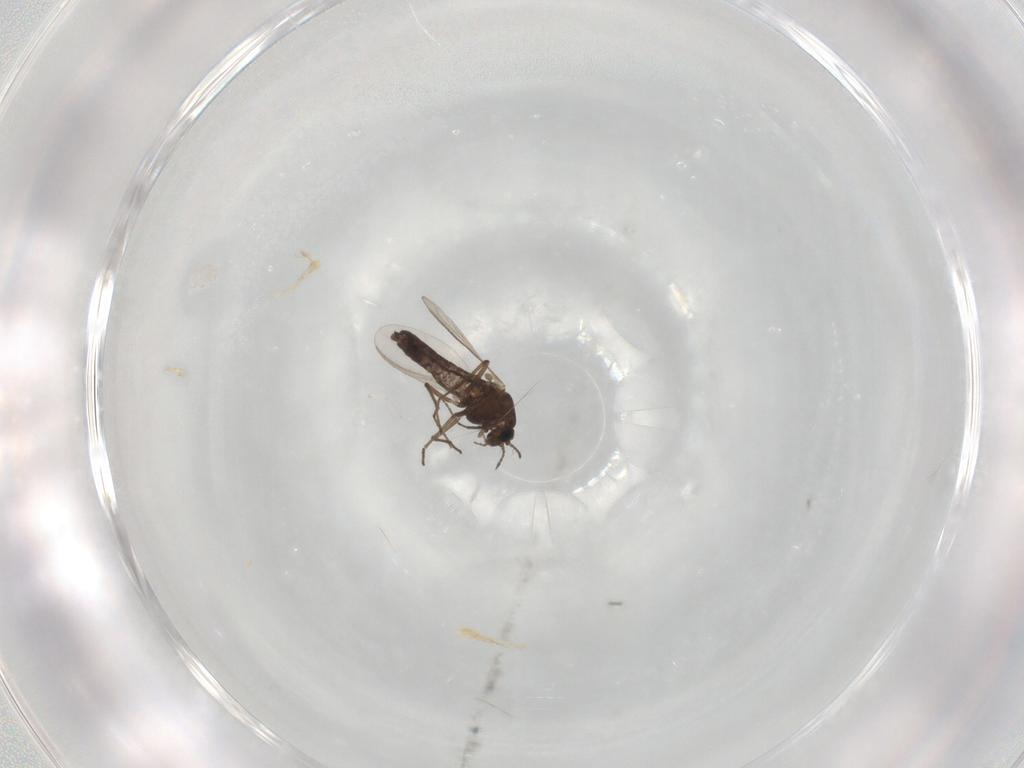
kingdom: Animalia
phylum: Arthropoda
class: Insecta
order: Diptera
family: Chironomidae
